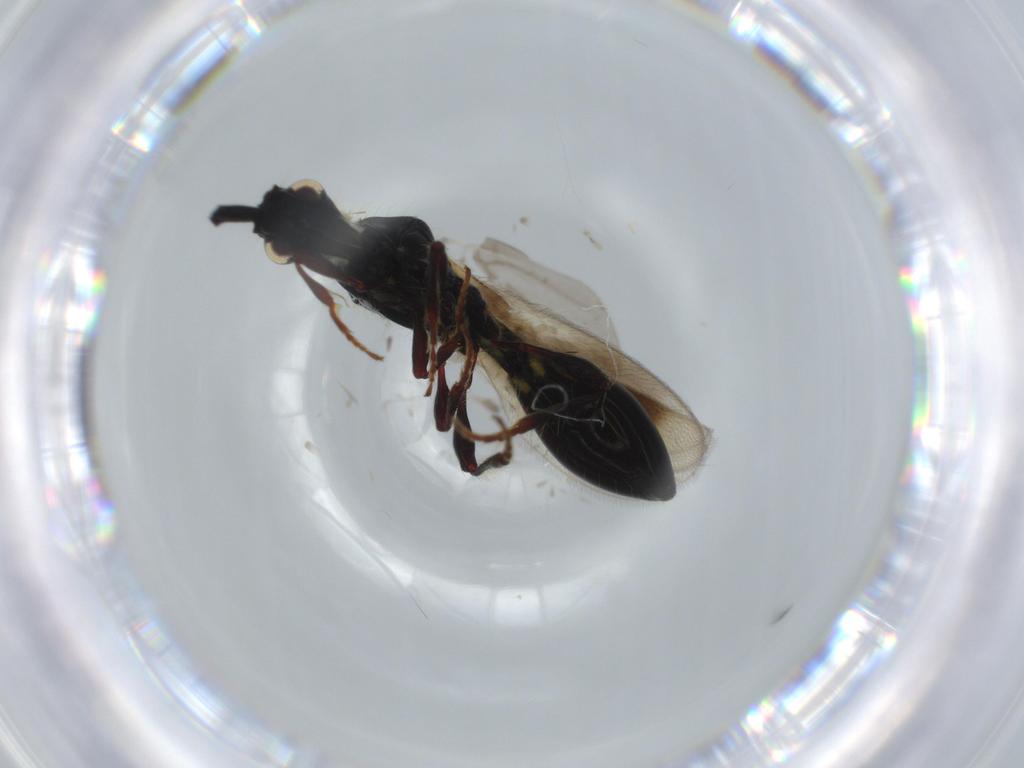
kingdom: Animalia
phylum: Arthropoda
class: Insecta
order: Hymenoptera
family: Diapriidae
